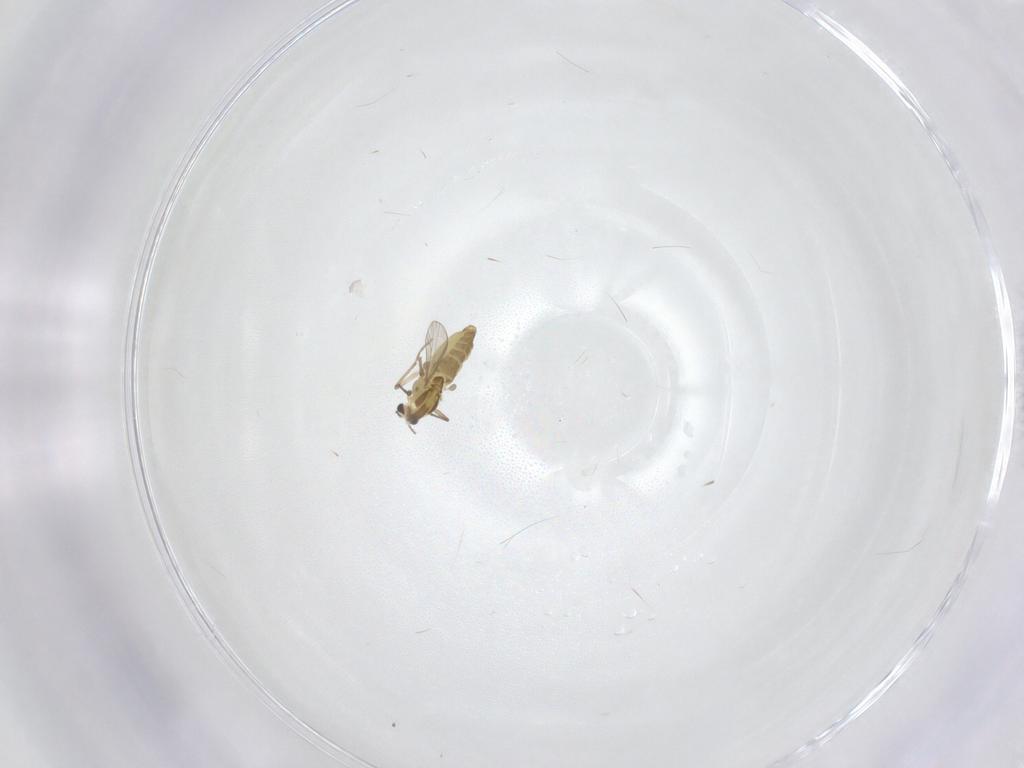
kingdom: Animalia
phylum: Arthropoda
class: Insecta
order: Diptera
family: Chironomidae
